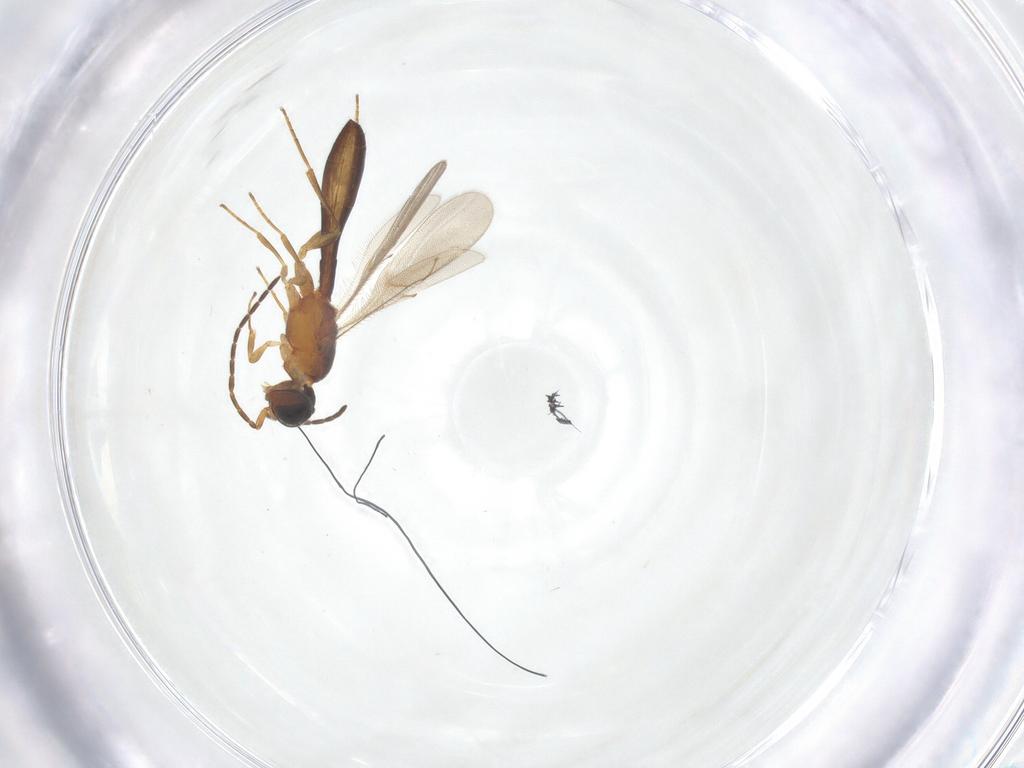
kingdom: Animalia
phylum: Arthropoda
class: Insecta
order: Hymenoptera
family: Scelionidae
